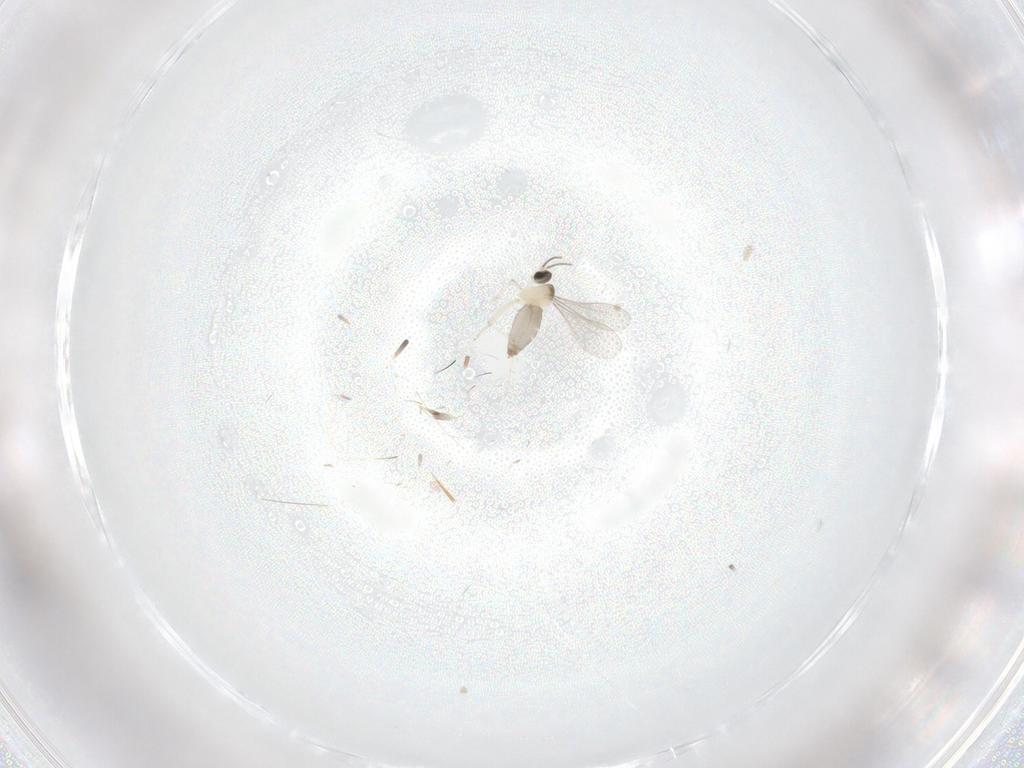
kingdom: Animalia
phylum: Arthropoda
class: Insecta
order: Diptera
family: Cecidomyiidae
